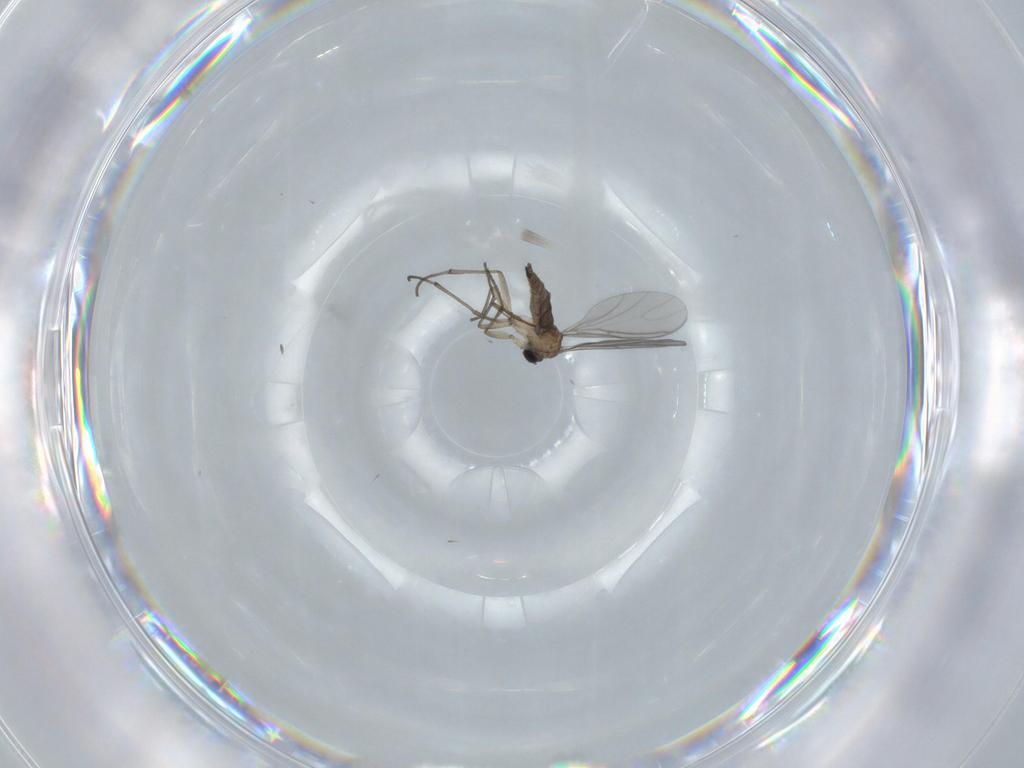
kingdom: Animalia
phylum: Arthropoda
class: Insecta
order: Diptera
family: Sciaridae
